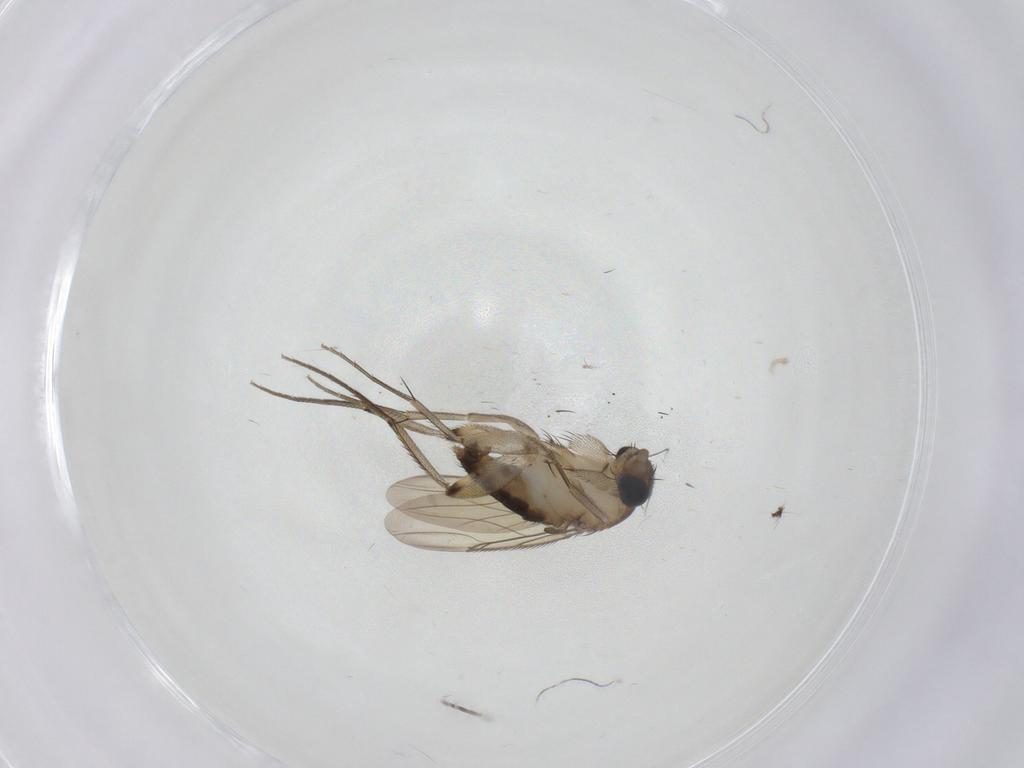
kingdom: Animalia
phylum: Arthropoda
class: Insecta
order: Diptera
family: Phoridae
